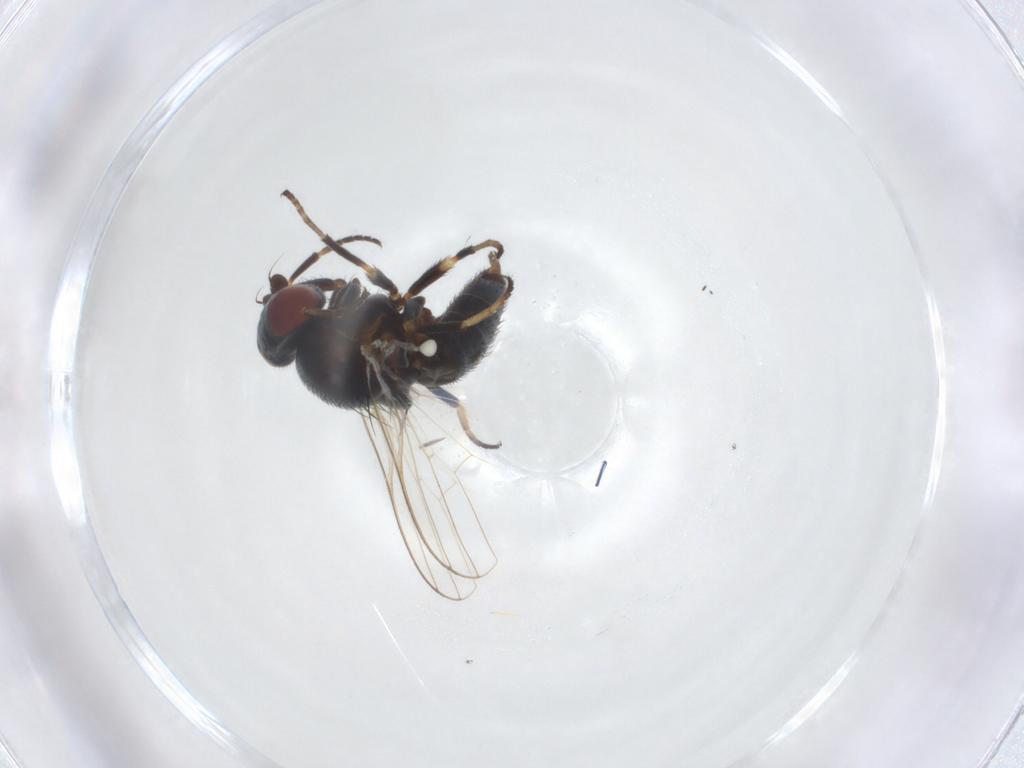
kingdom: Animalia
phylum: Arthropoda
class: Insecta
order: Diptera
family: Chamaemyiidae
